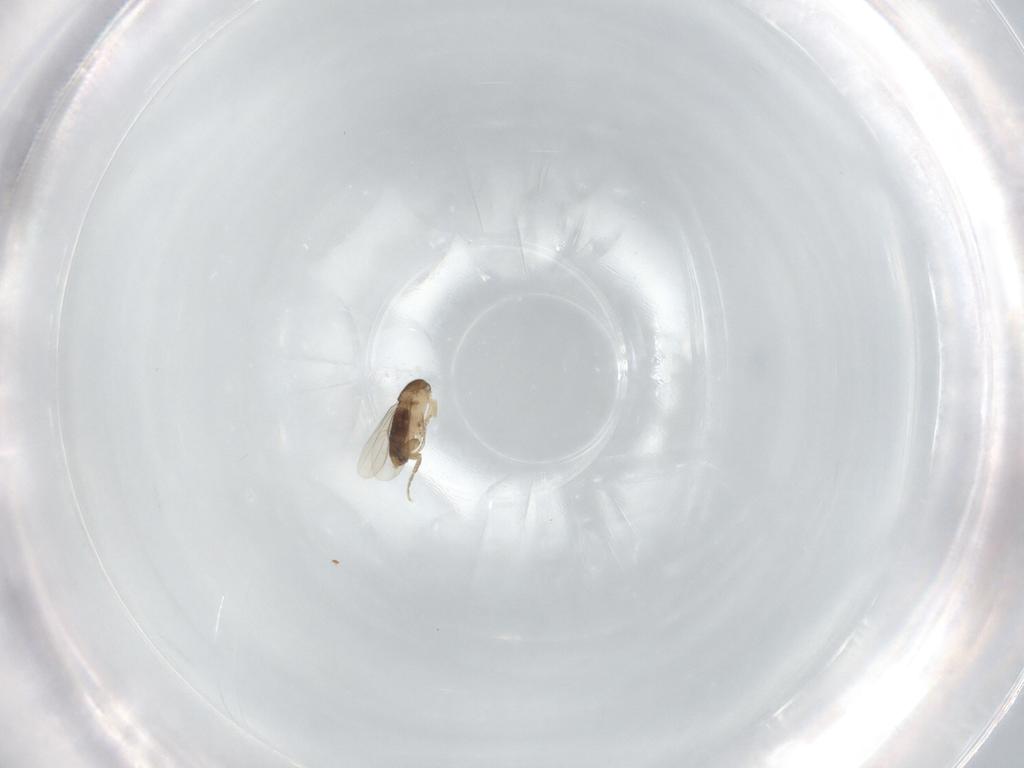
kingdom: Animalia
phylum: Arthropoda
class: Insecta
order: Diptera
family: Phoridae
